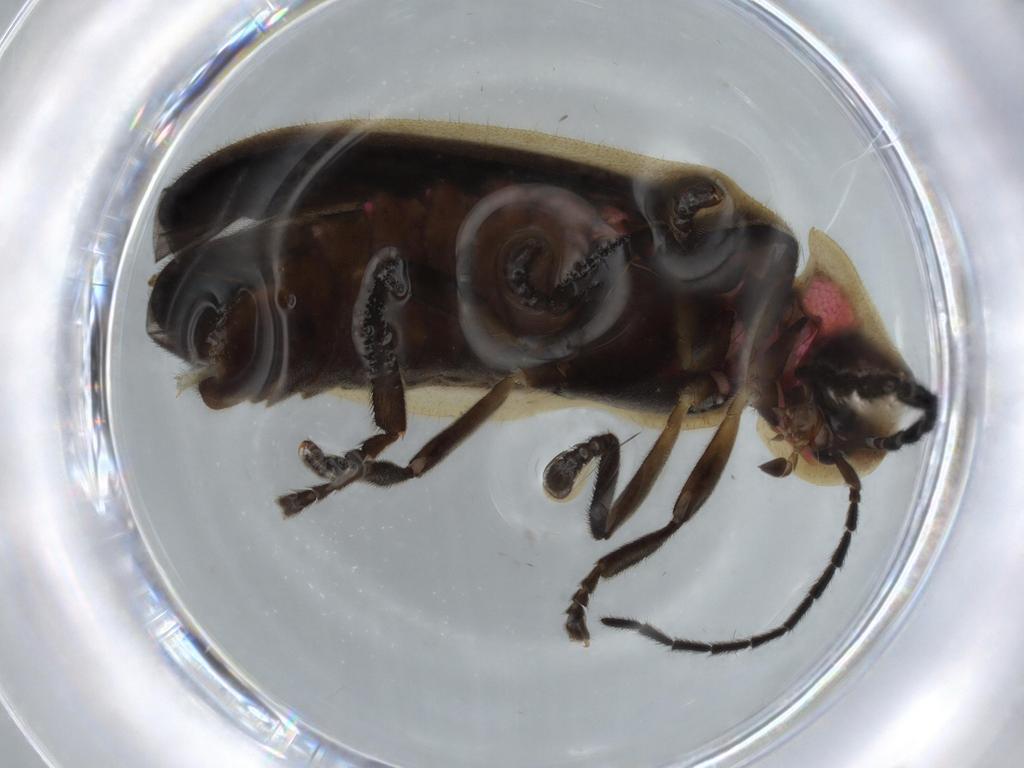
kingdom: Animalia
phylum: Arthropoda
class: Insecta
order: Coleoptera
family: Lampyridae
